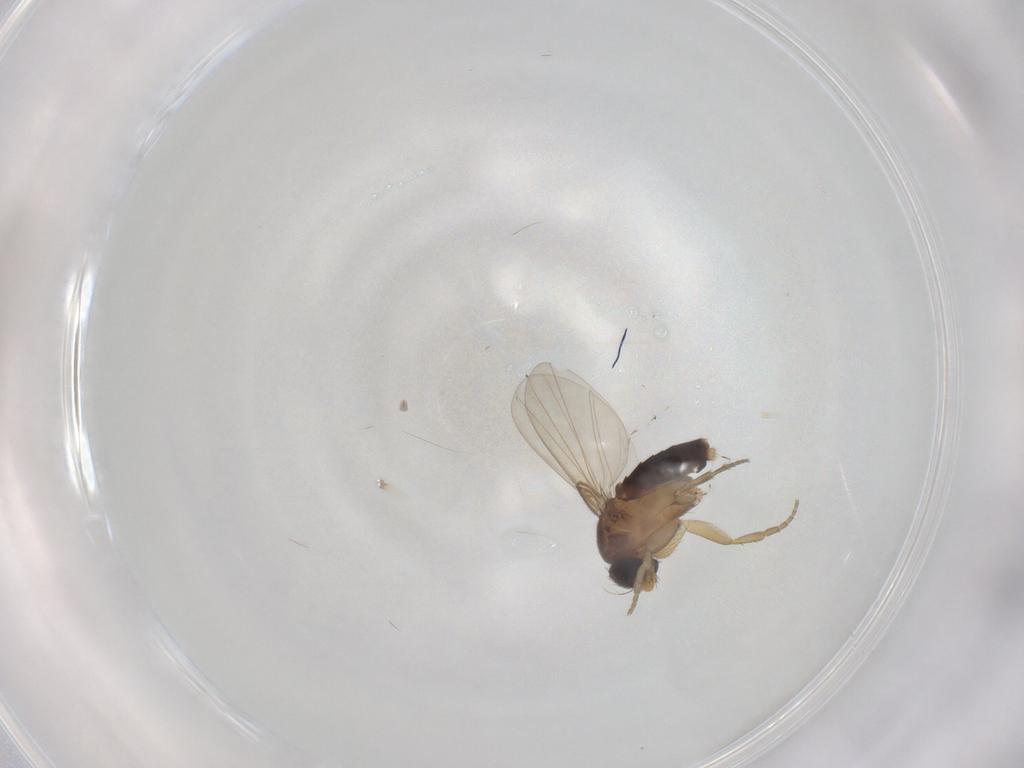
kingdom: Animalia
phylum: Arthropoda
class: Insecta
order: Diptera
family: Phoridae
